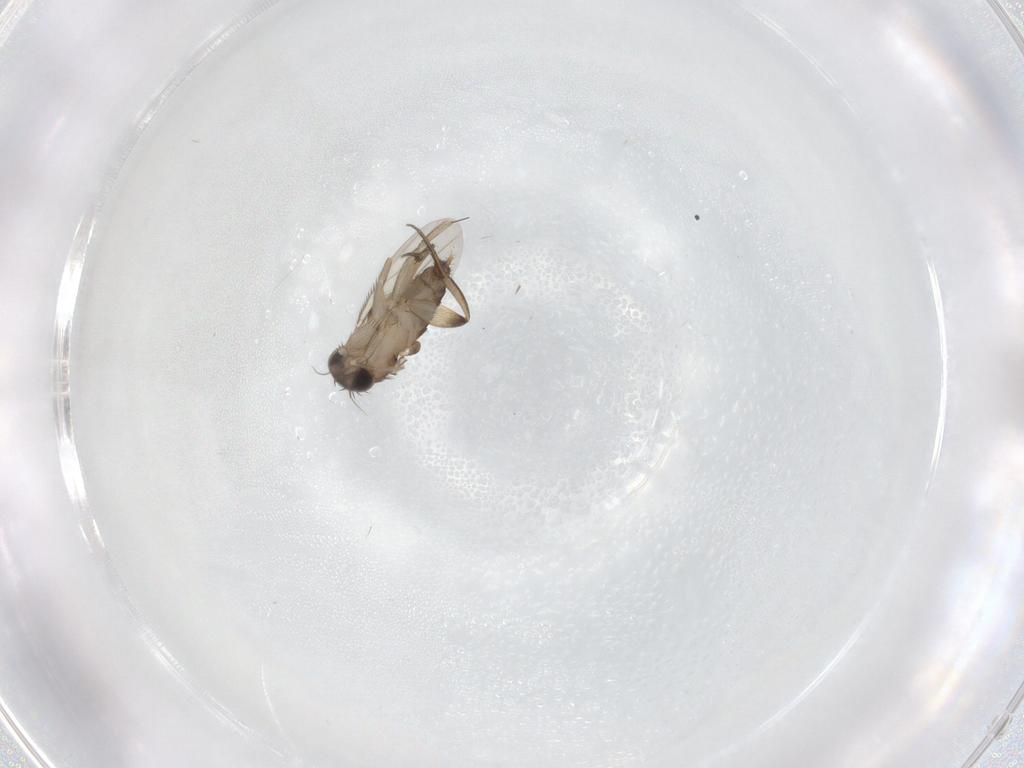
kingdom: Animalia
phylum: Arthropoda
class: Insecta
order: Diptera
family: Phoridae
